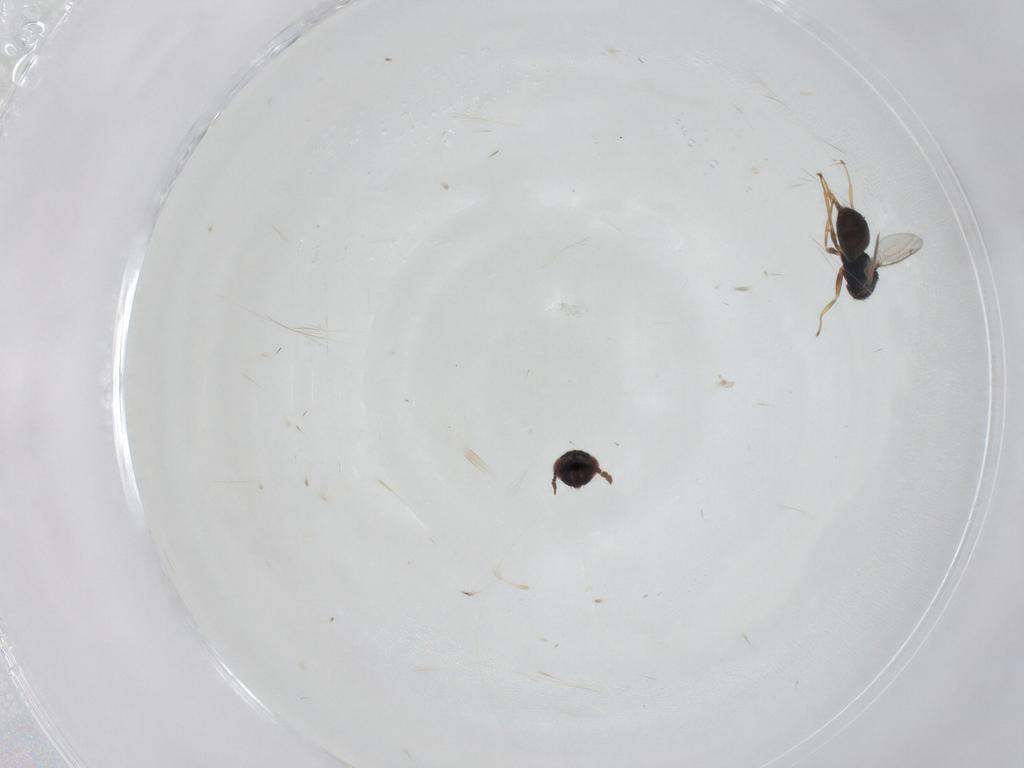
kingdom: Animalia
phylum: Arthropoda
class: Insecta
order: Hymenoptera
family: Eulophidae
